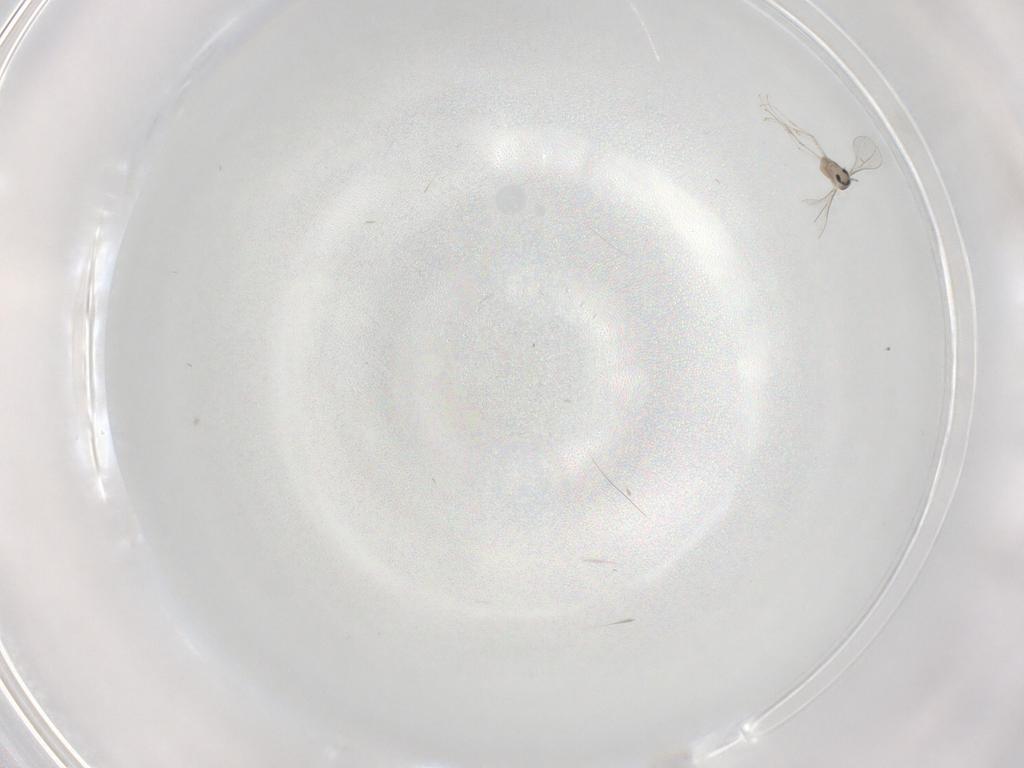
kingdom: Animalia
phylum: Arthropoda
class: Insecta
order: Diptera
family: Cecidomyiidae
